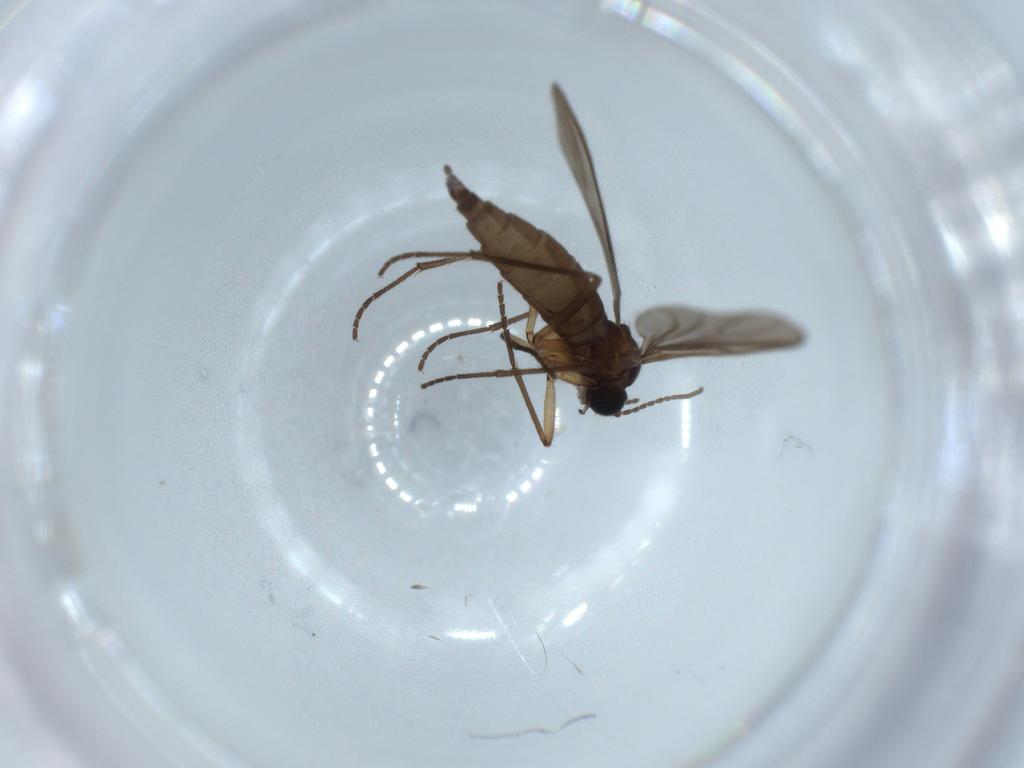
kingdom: Animalia
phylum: Arthropoda
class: Insecta
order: Diptera
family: Sciaridae
